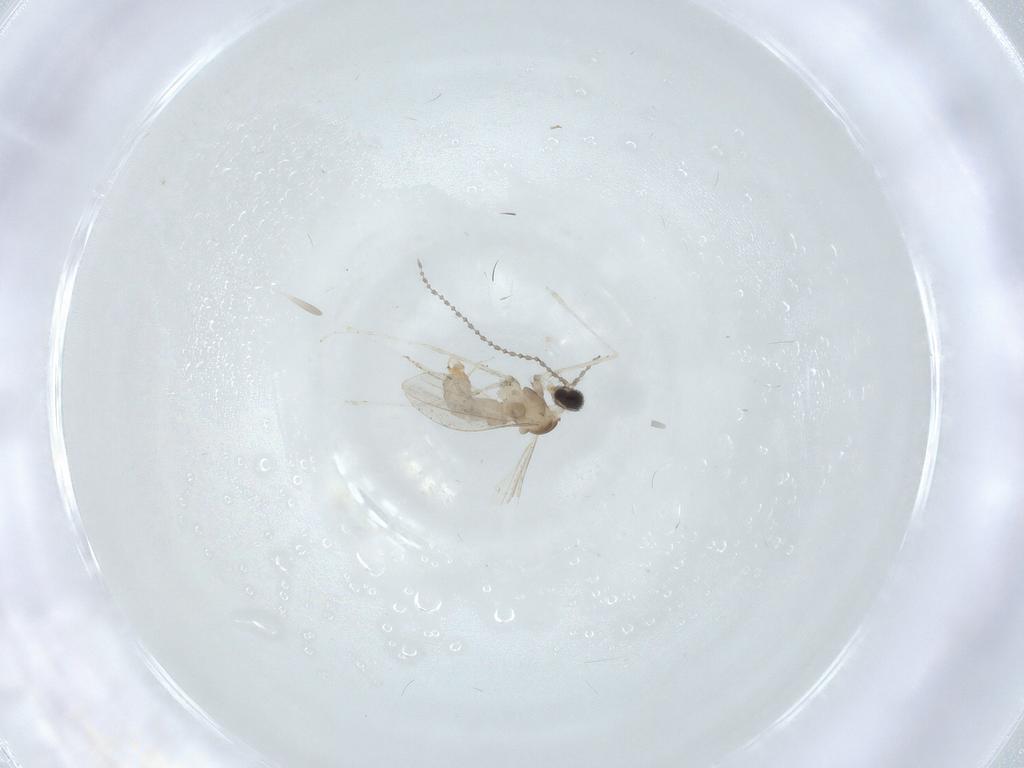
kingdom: Animalia
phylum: Arthropoda
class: Insecta
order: Diptera
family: Cecidomyiidae
